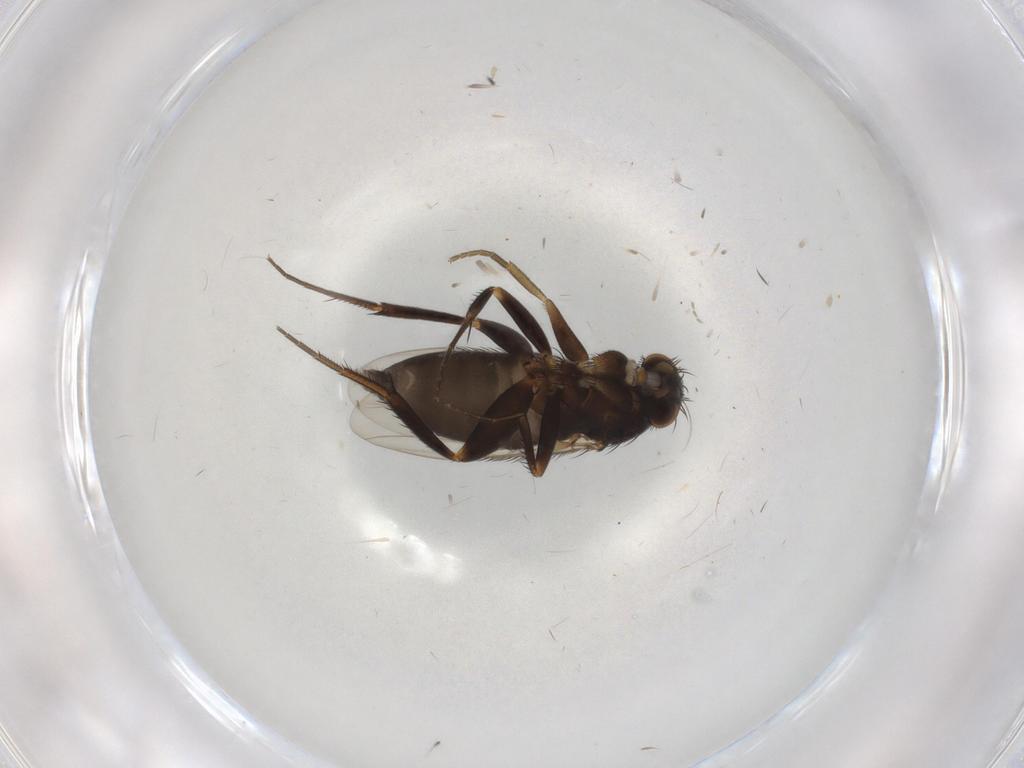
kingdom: Animalia
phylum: Arthropoda
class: Insecta
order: Diptera
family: Phoridae
